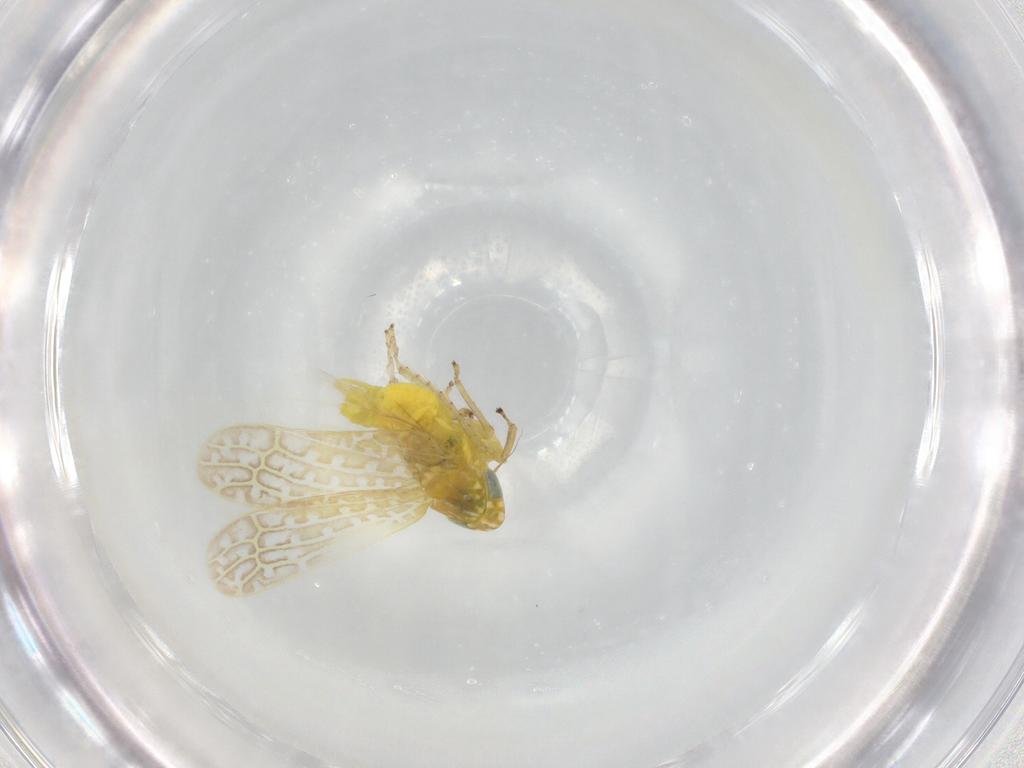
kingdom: Animalia
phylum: Arthropoda
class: Insecta
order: Hemiptera
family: Cicadellidae
